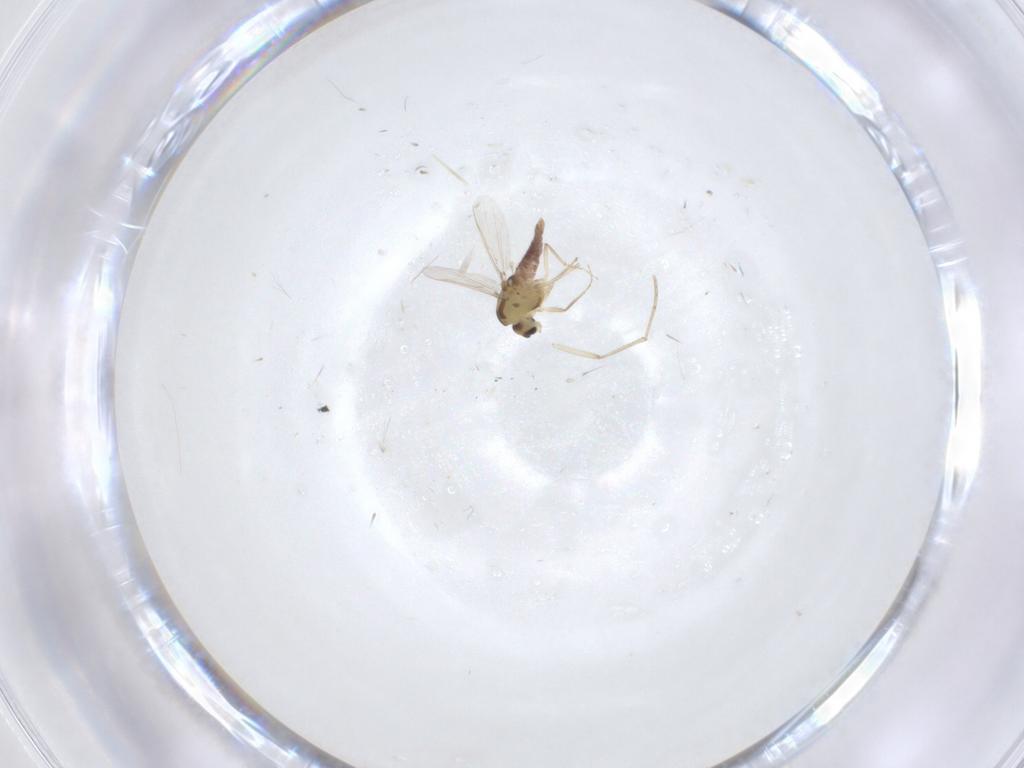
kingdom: Animalia
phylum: Arthropoda
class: Insecta
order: Diptera
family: Chironomidae
